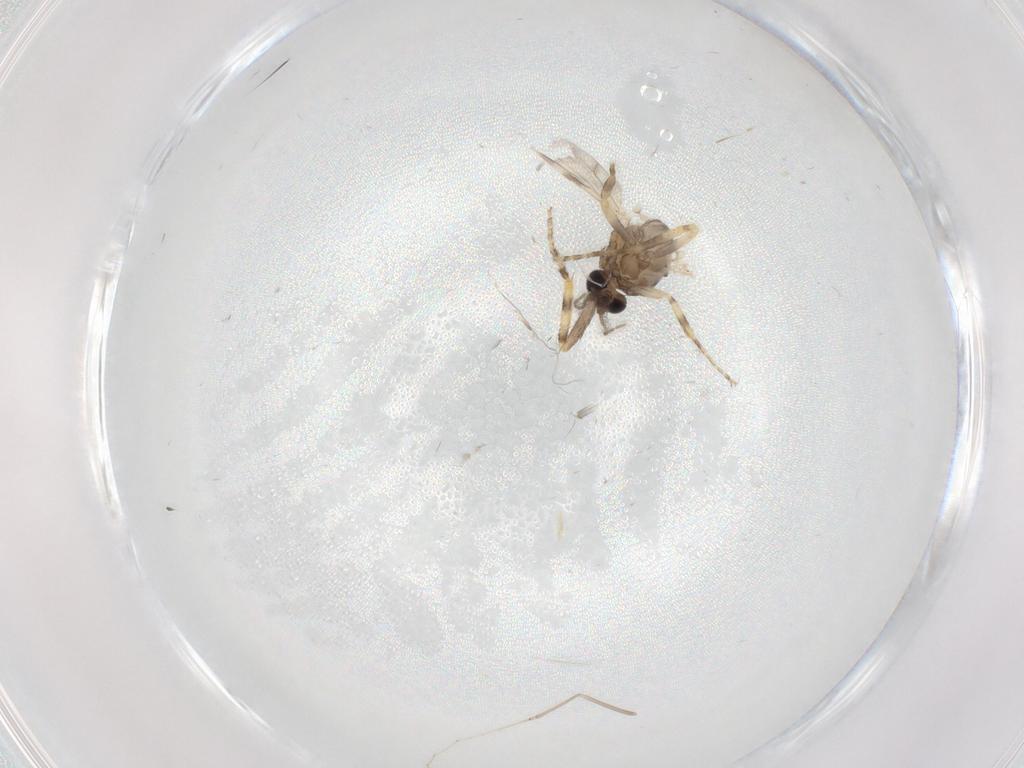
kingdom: Animalia
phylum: Arthropoda
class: Insecta
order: Diptera
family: Ceratopogonidae
